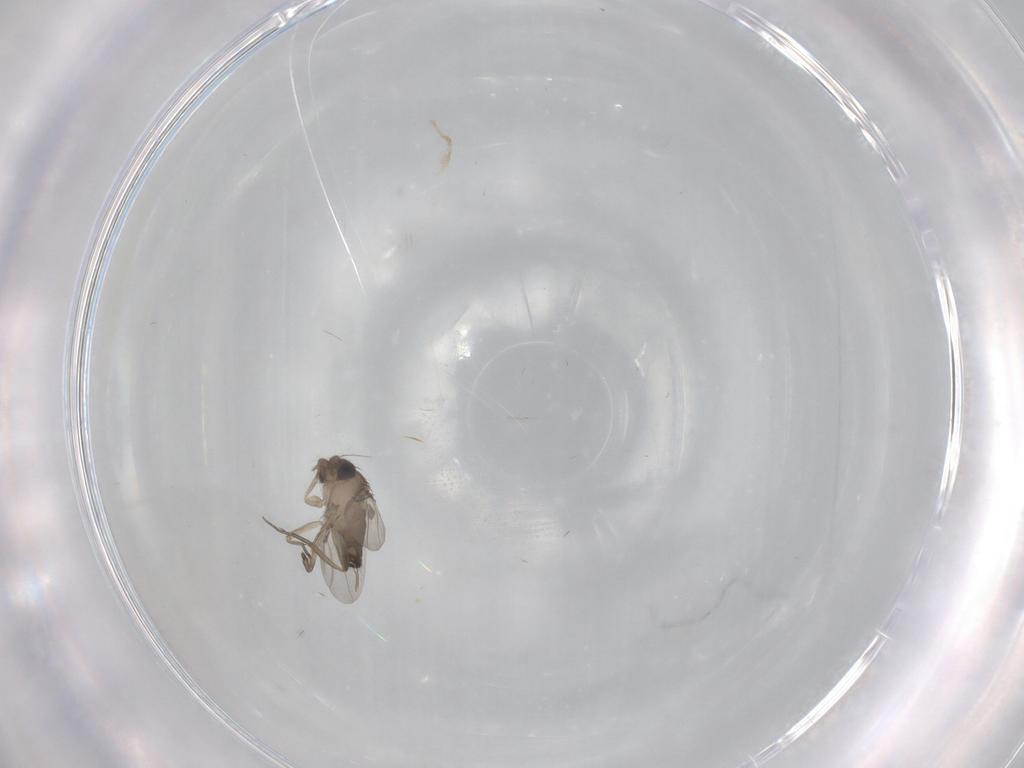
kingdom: Animalia
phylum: Arthropoda
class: Insecta
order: Diptera
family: Phoridae
